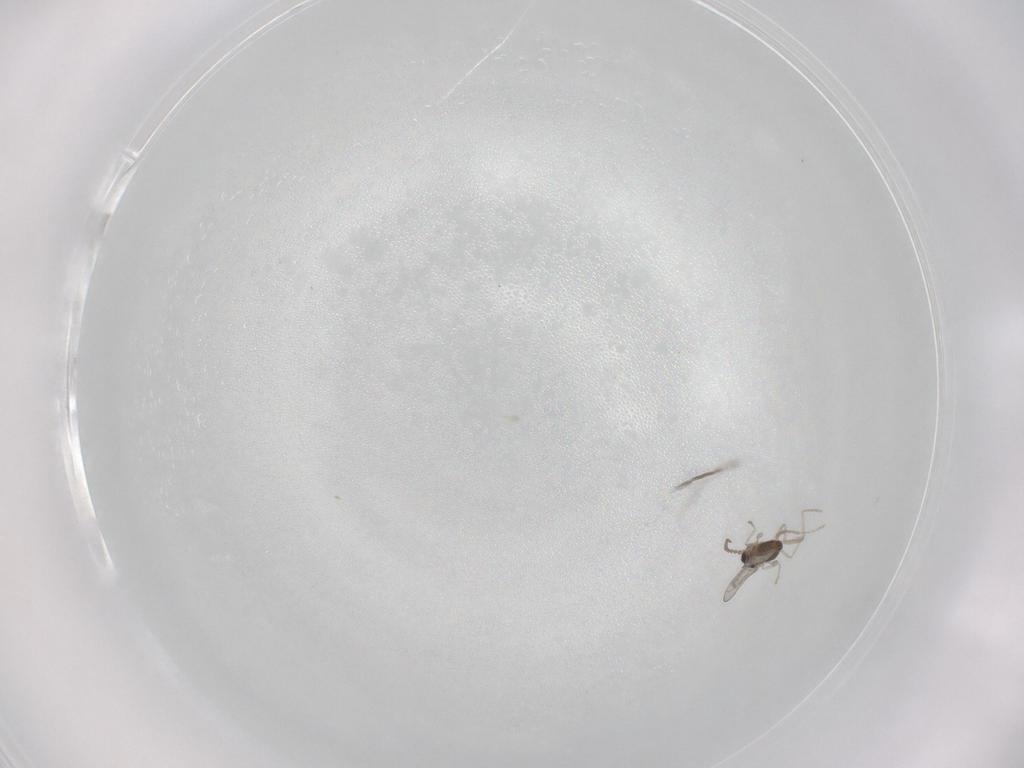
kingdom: Animalia
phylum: Arthropoda
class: Insecta
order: Diptera
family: Cecidomyiidae
